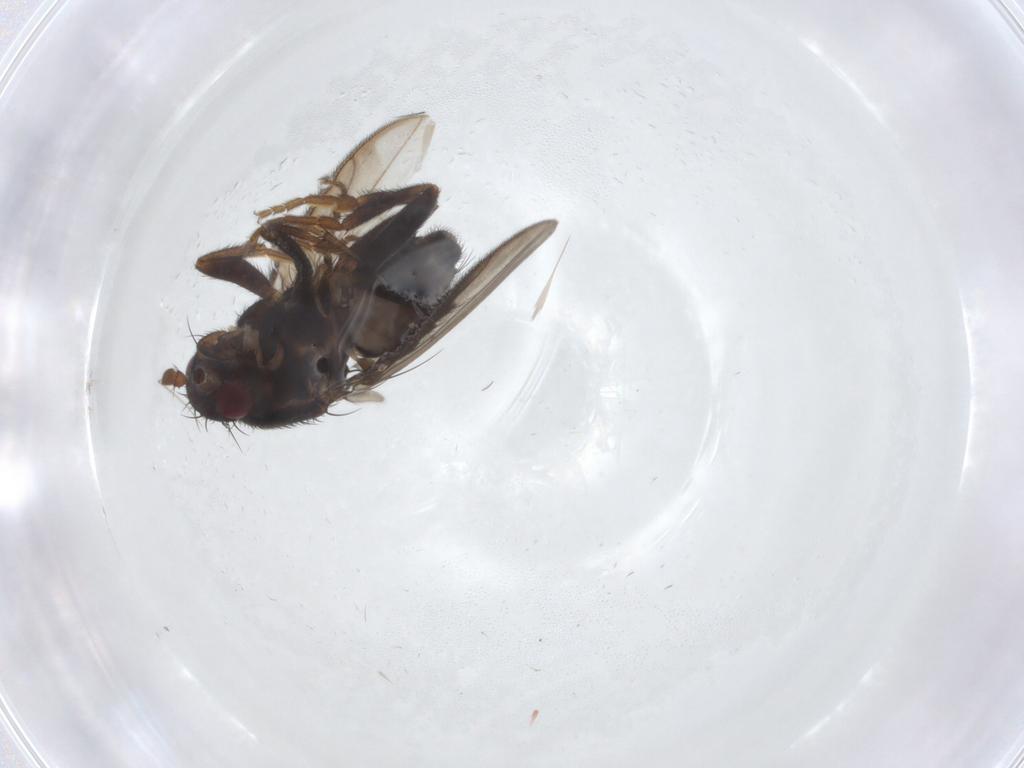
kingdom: Animalia
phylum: Arthropoda
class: Insecta
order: Diptera
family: Sphaeroceridae
